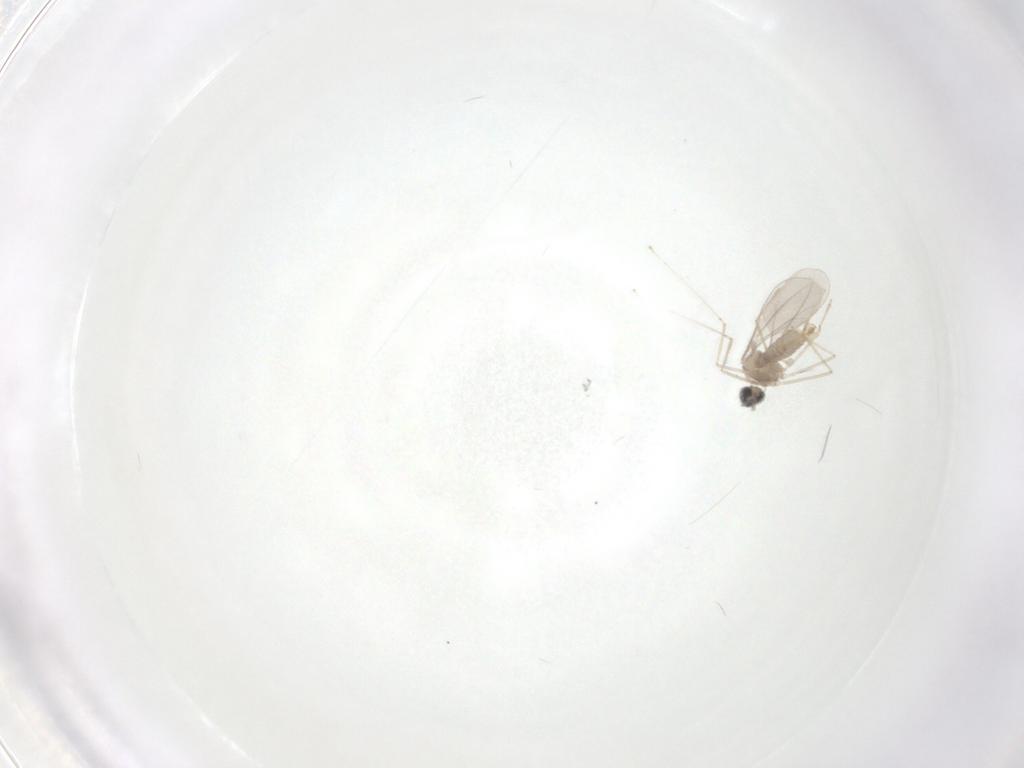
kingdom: Animalia
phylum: Arthropoda
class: Insecta
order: Diptera
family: Cecidomyiidae
